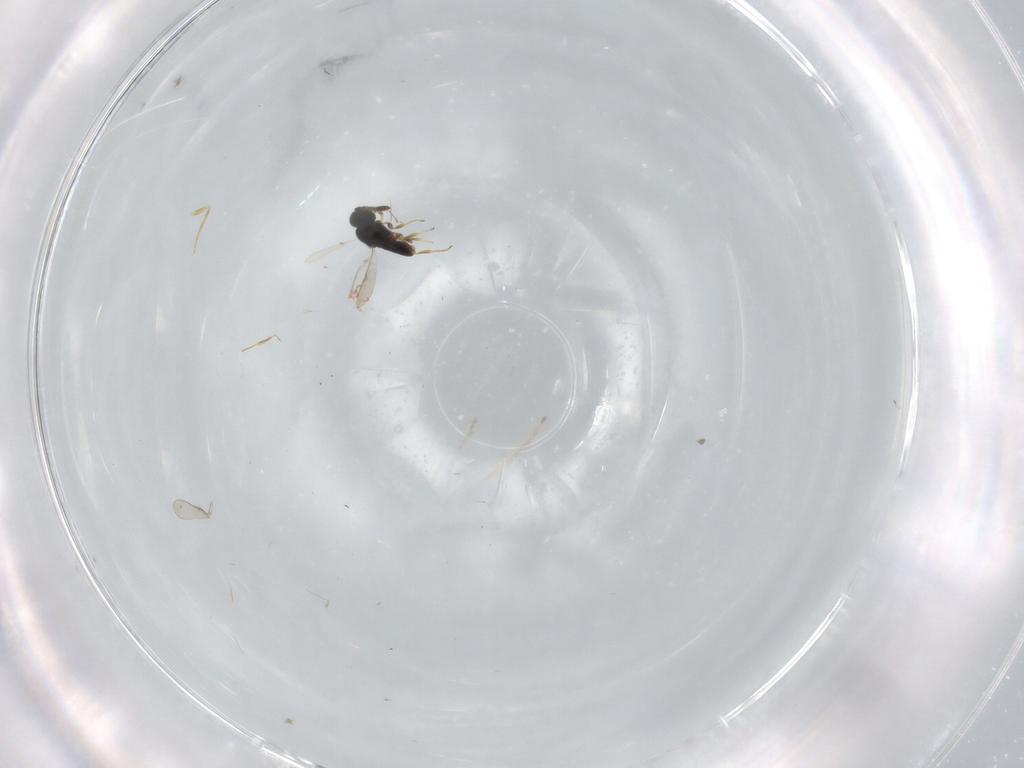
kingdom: Animalia
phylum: Arthropoda
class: Insecta
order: Hymenoptera
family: Scelionidae
